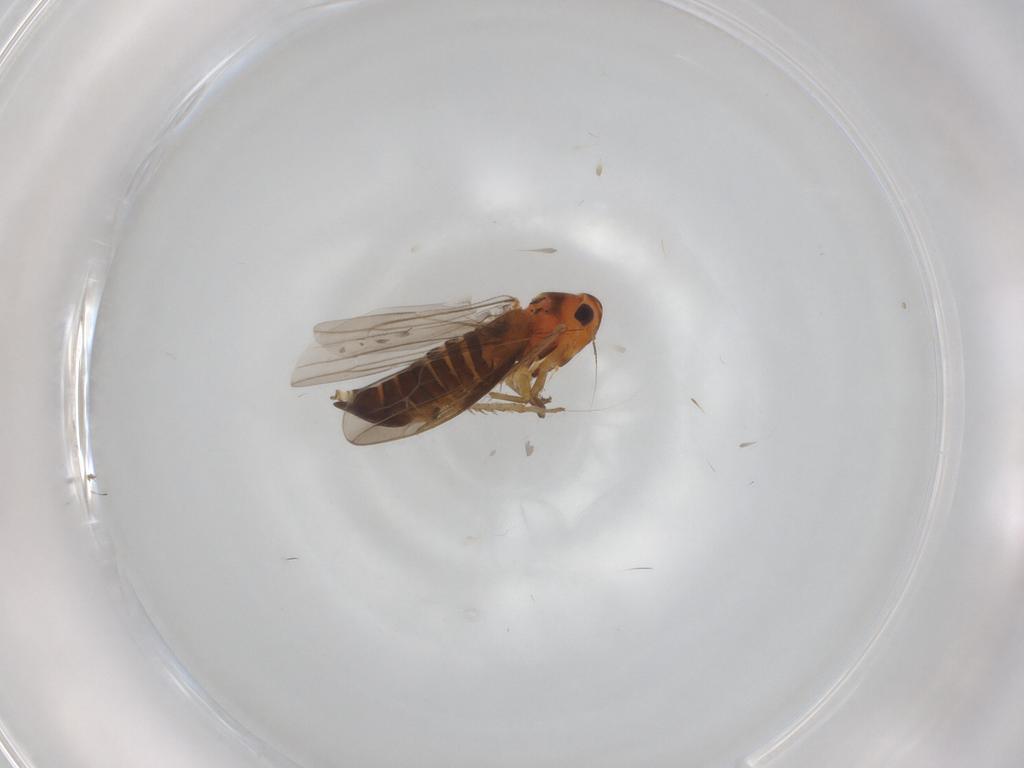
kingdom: Animalia
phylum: Arthropoda
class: Insecta
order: Hemiptera
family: Cicadellidae
